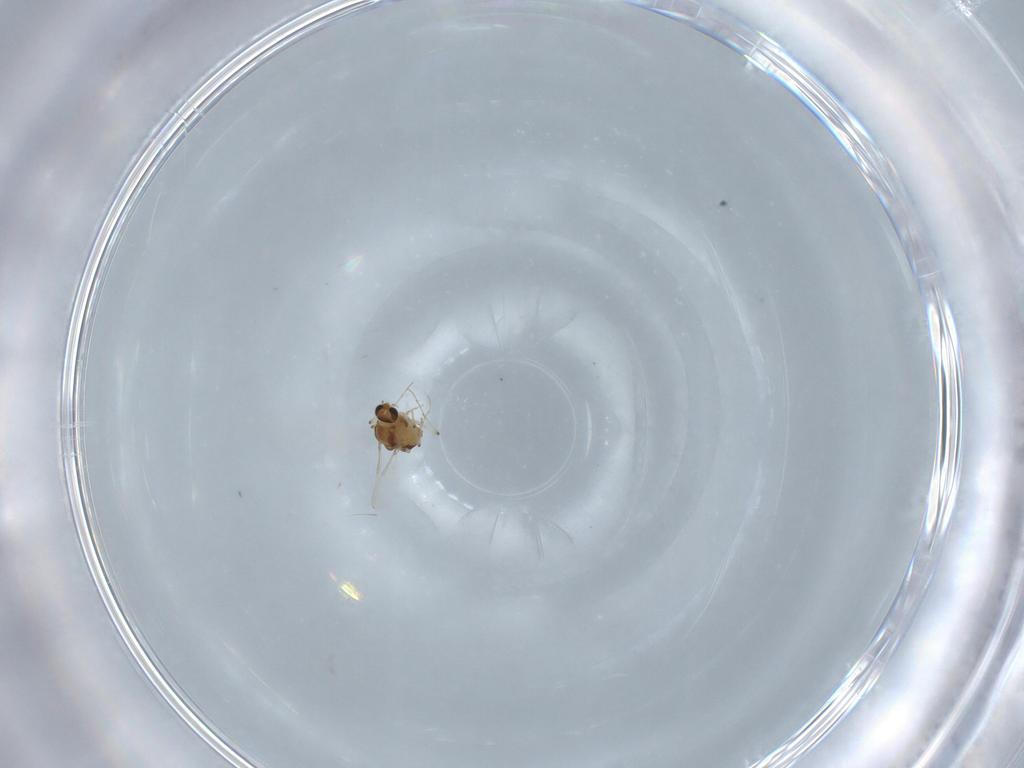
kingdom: Animalia
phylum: Arthropoda
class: Insecta
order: Diptera
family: Chironomidae
